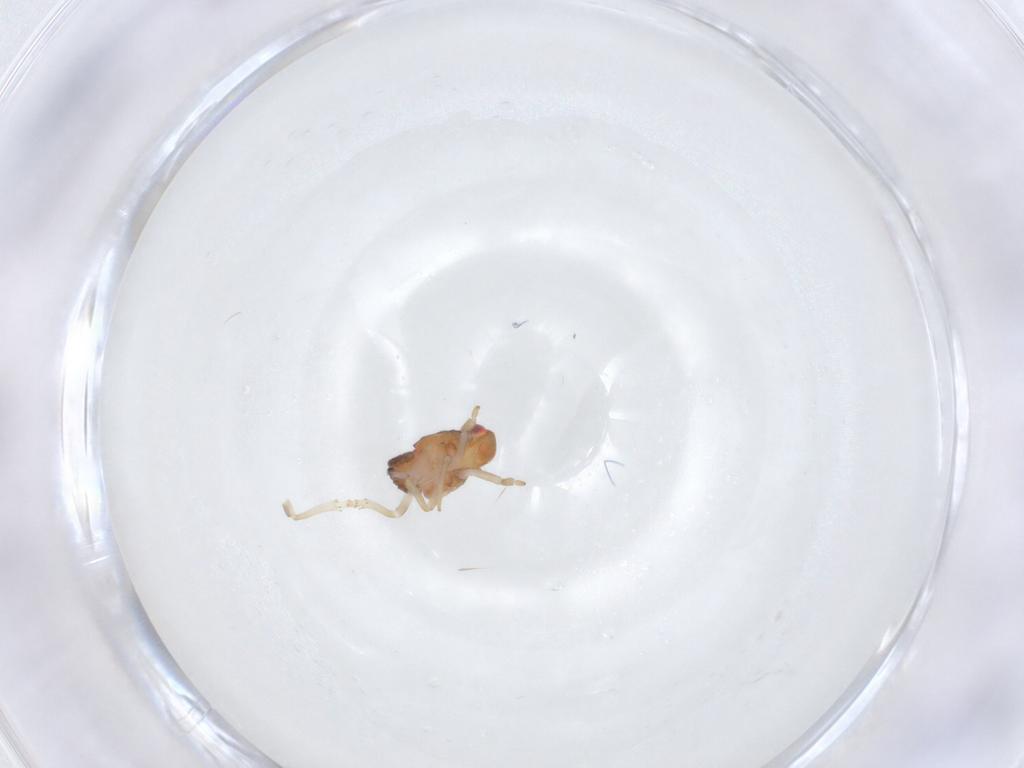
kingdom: Animalia
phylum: Arthropoda
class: Insecta
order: Hemiptera
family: Issidae
